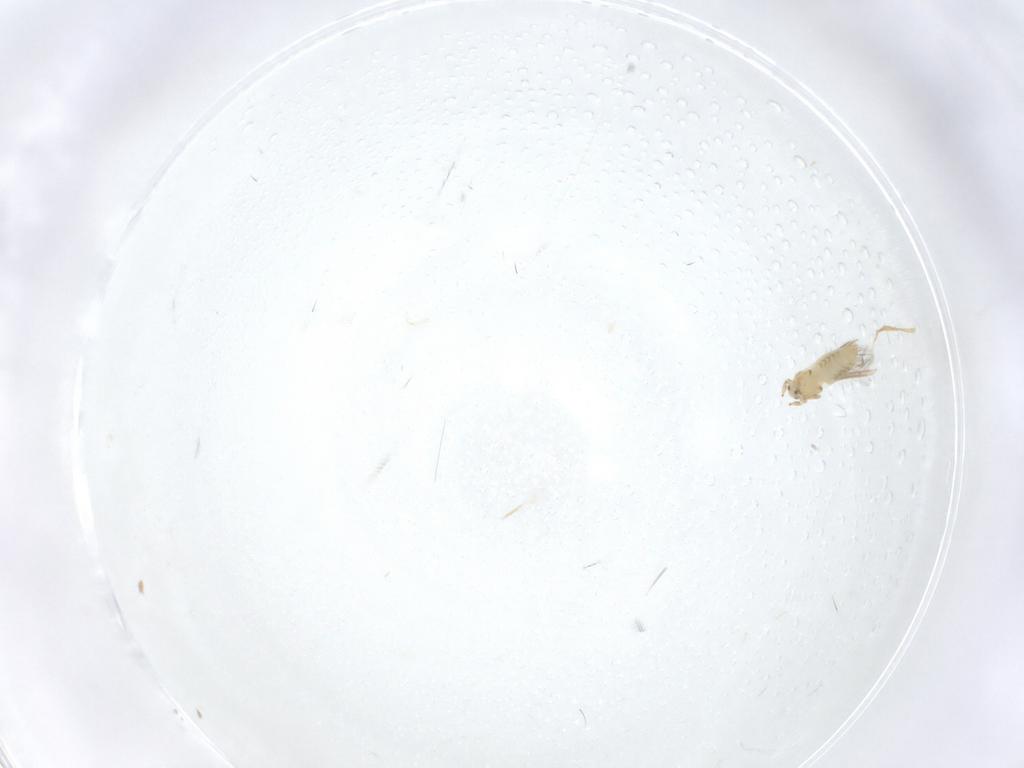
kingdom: Animalia
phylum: Arthropoda
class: Insecta
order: Diptera
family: Tipulidae
